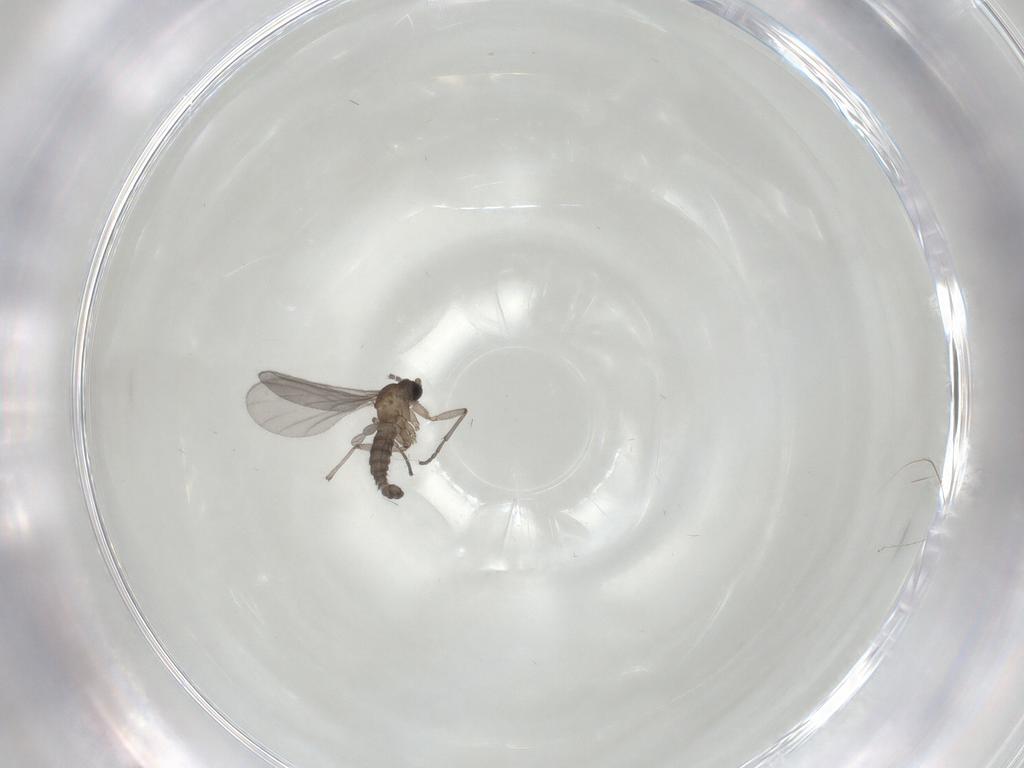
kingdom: Animalia
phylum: Arthropoda
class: Insecta
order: Diptera
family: Sciaridae
